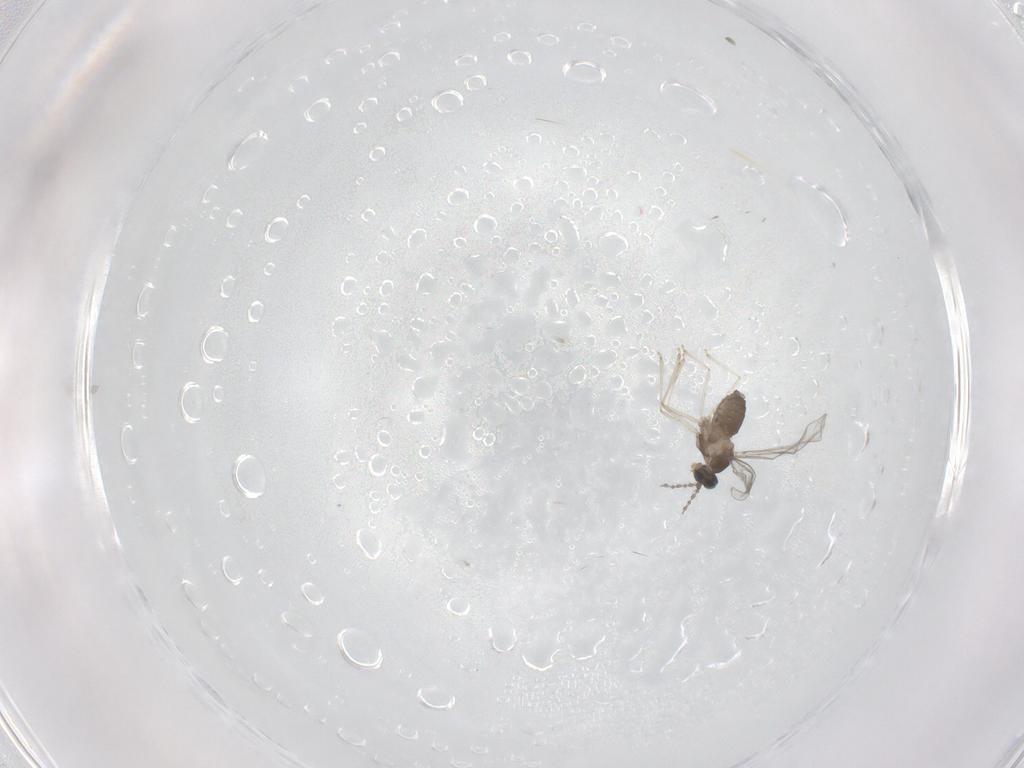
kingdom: Animalia
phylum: Arthropoda
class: Insecta
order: Diptera
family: Cecidomyiidae
